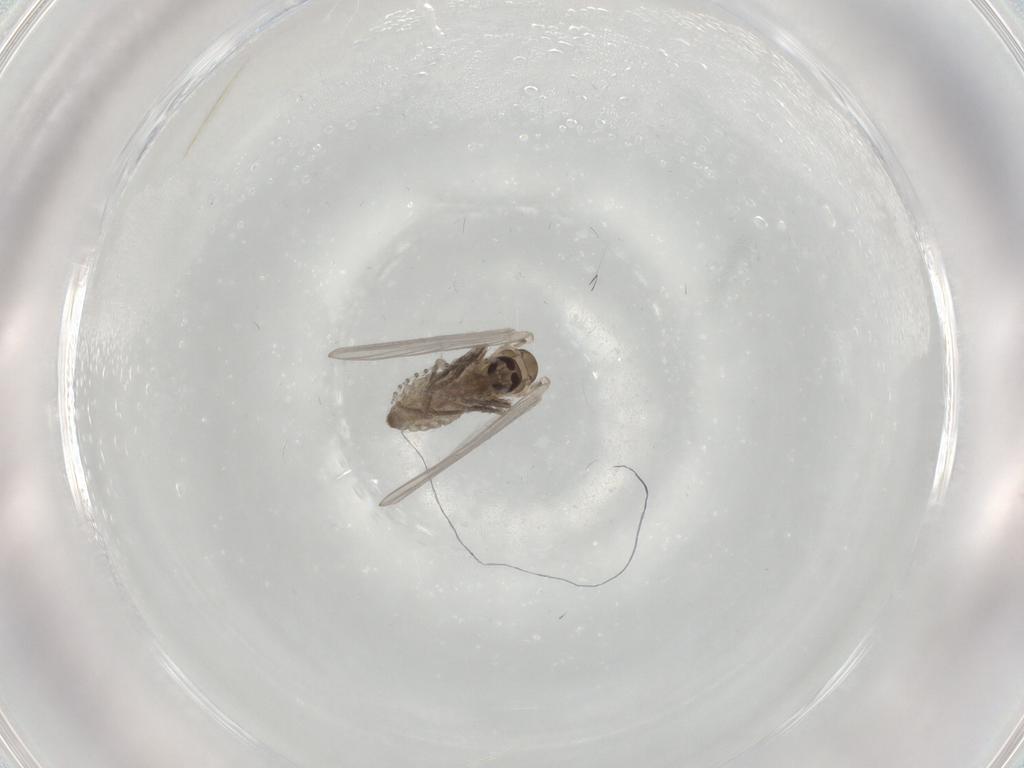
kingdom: Animalia
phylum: Arthropoda
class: Insecta
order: Diptera
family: Psychodidae
